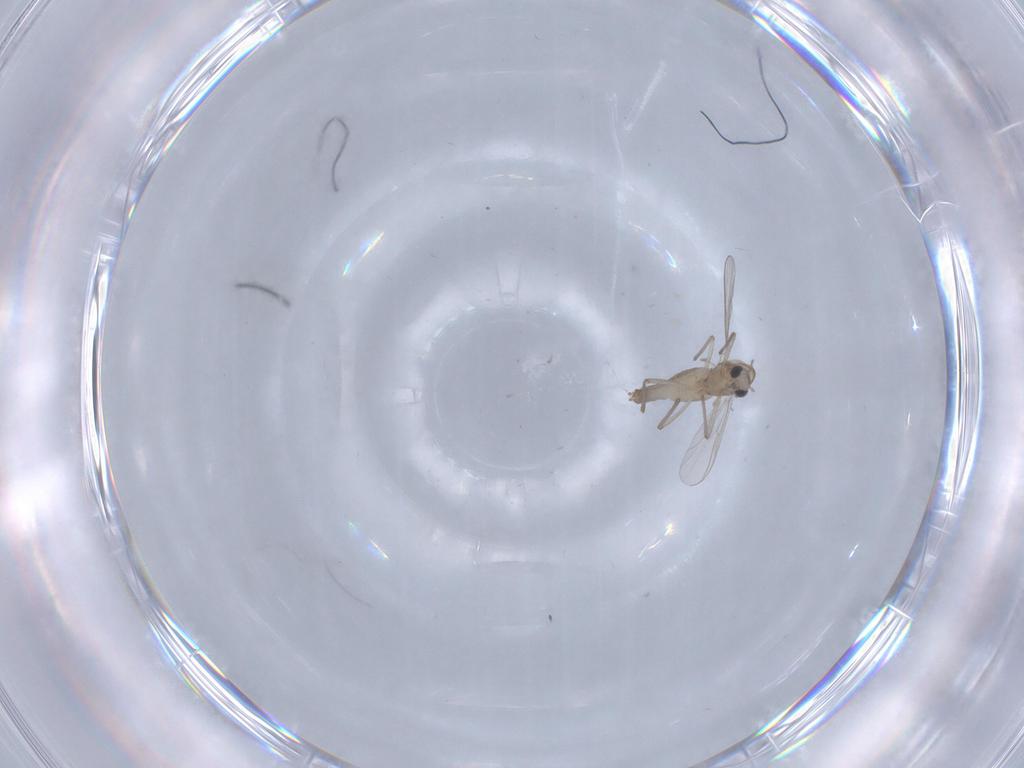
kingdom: Animalia
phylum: Arthropoda
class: Insecta
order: Diptera
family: Chironomidae
